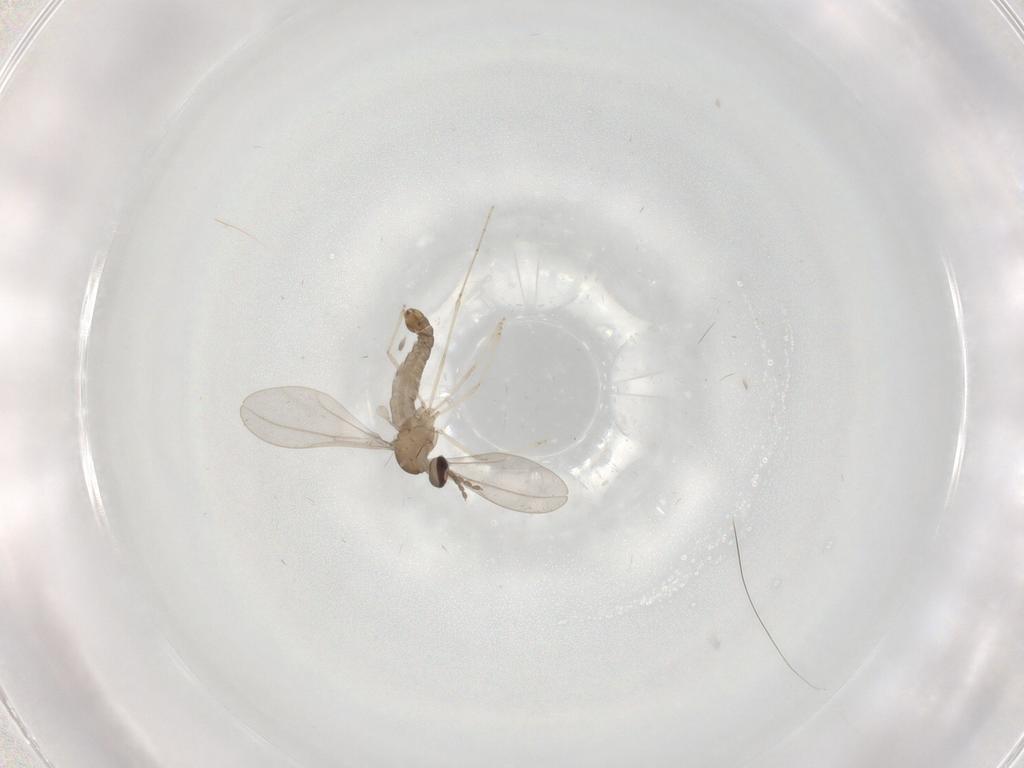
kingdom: Animalia
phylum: Arthropoda
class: Insecta
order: Diptera
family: Cecidomyiidae
